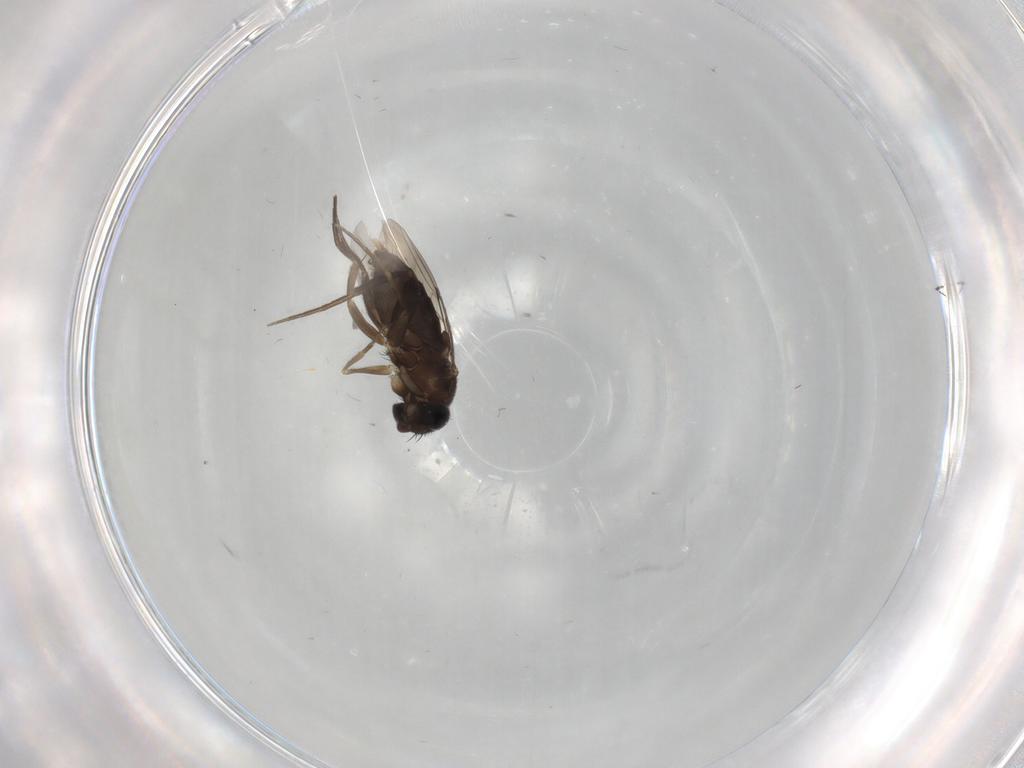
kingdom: Animalia
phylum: Arthropoda
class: Insecta
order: Diptera
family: Phoridae
